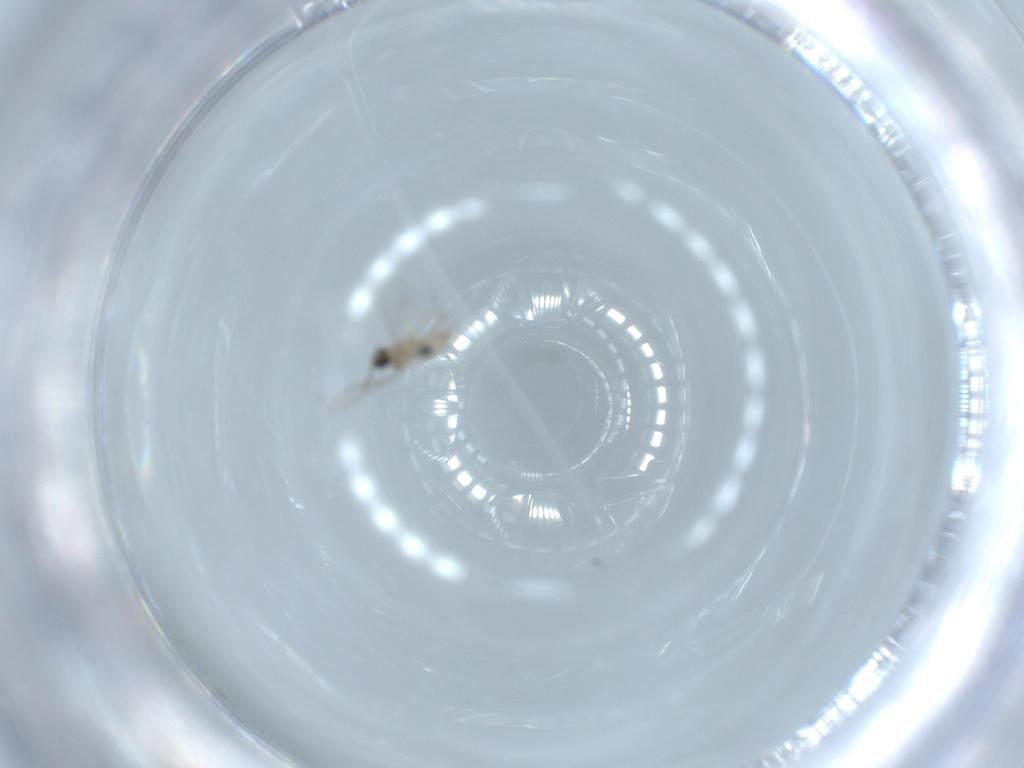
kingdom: Animalia
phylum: Arthropoda
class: Insecta
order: Diptera
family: Cecidomyiidae
